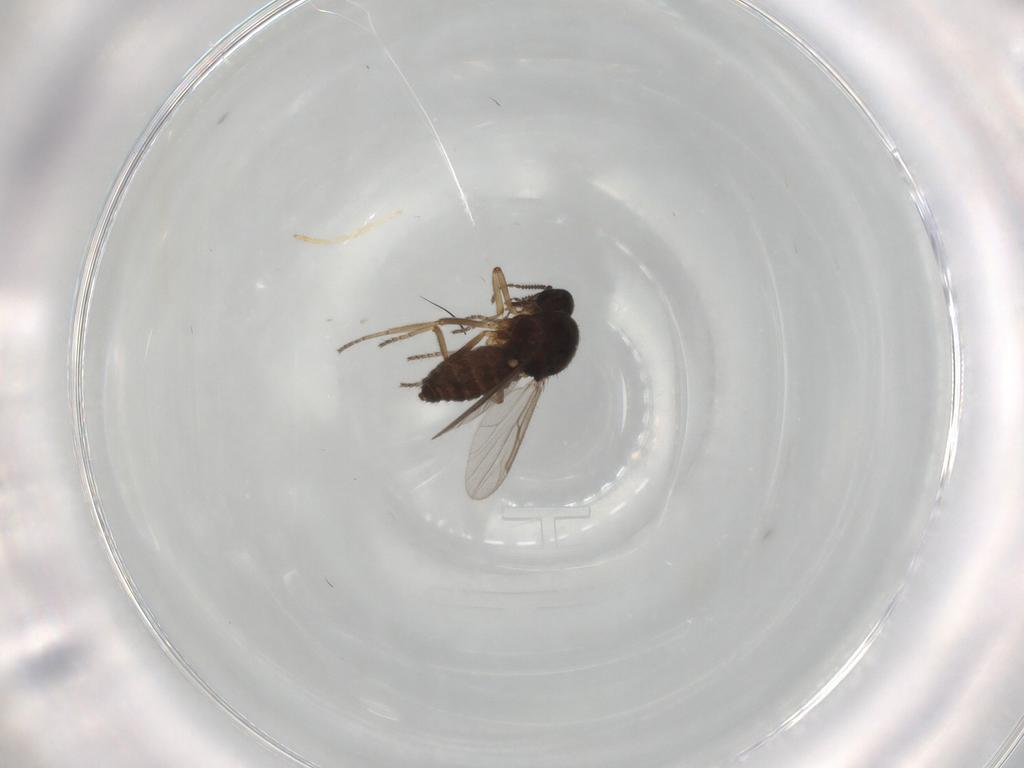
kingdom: Animalia
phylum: Arthropoda
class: Insecta
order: Diptera
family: Ceratopogonidae
